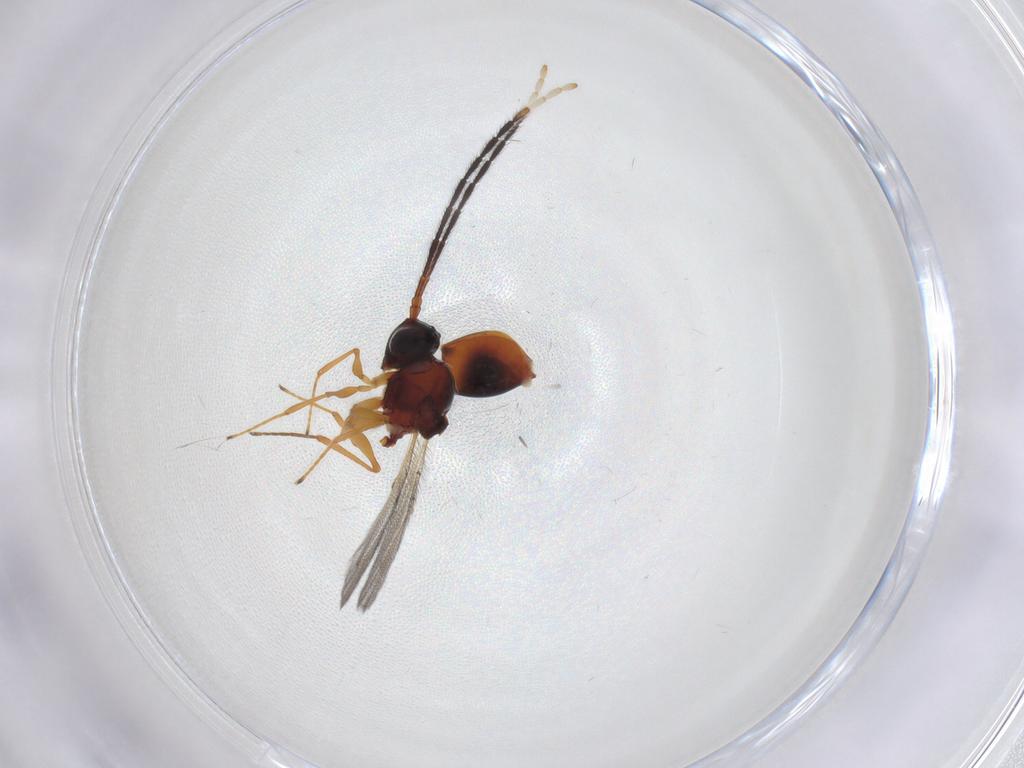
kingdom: Animalia
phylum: Arthropoda
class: Insecta
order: Hymenoptera
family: Figitidae
